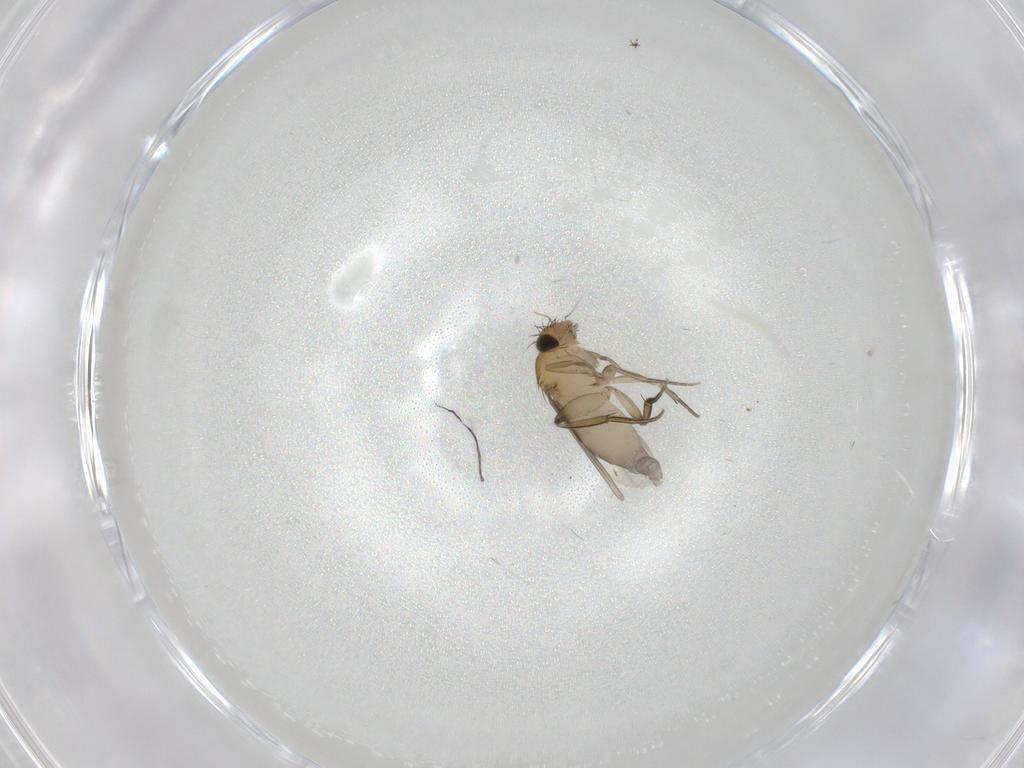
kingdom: Animalia
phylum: Arthropoda
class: Insecta
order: Diptera
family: Phoridae
